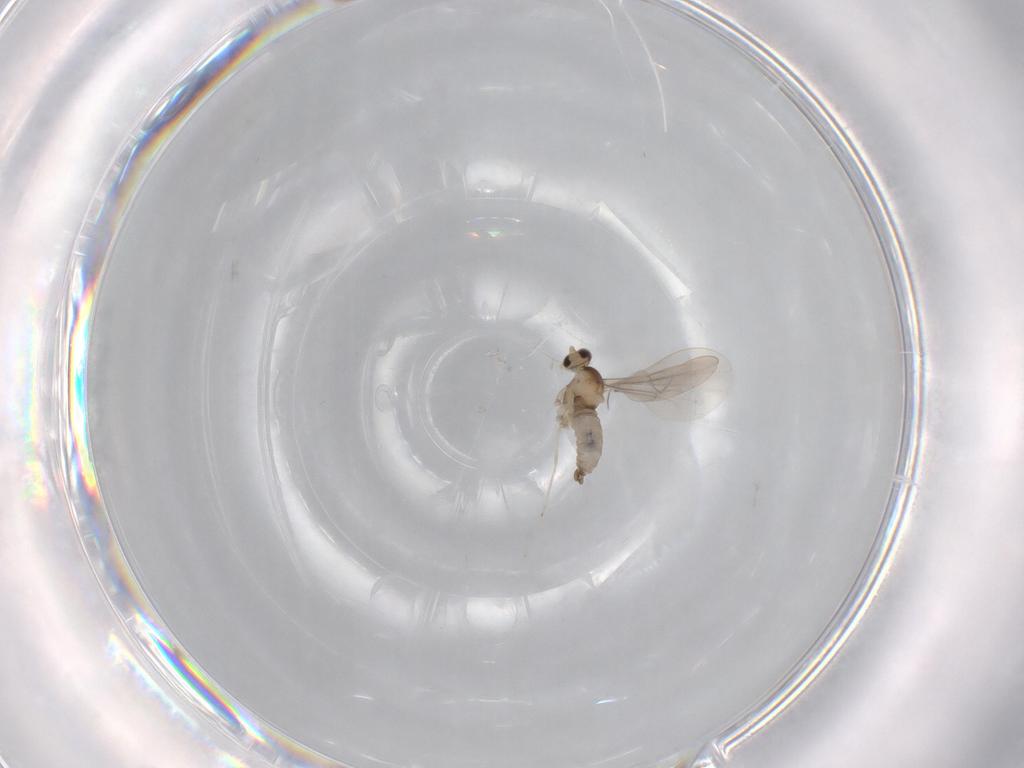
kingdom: Animalia
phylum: Arthropoda
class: Insecta
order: Diptera
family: Cecidomyiidae
